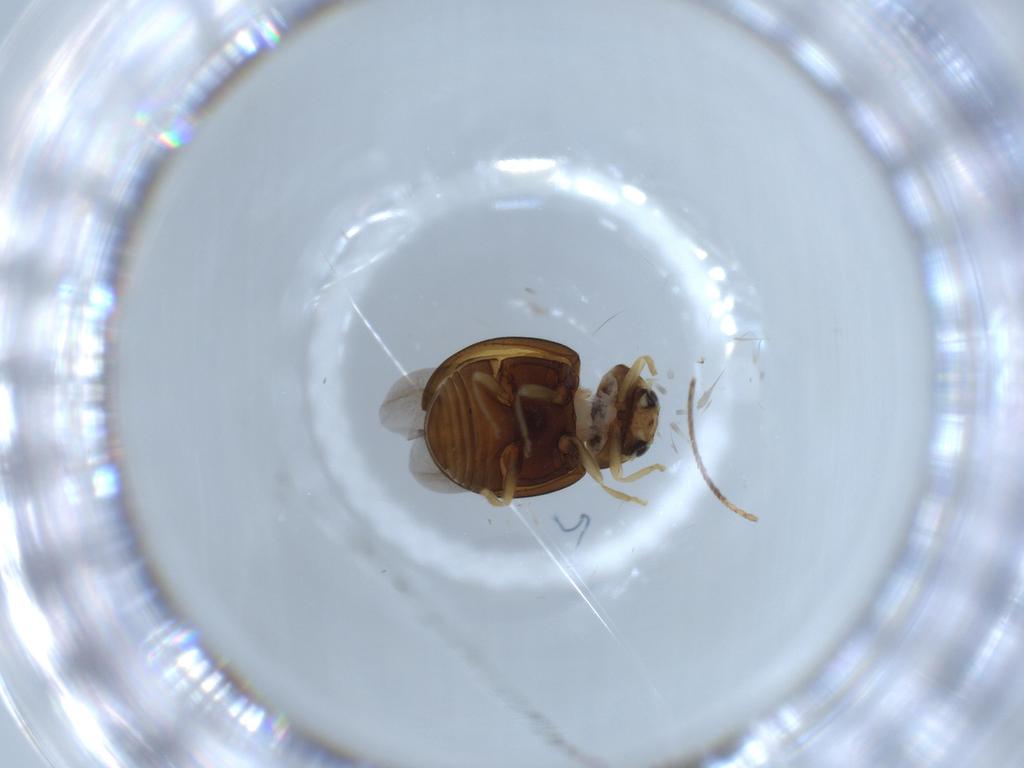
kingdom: Animalia
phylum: Arthropoda
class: Insecta
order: Coleoptera
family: Coccinellidae
